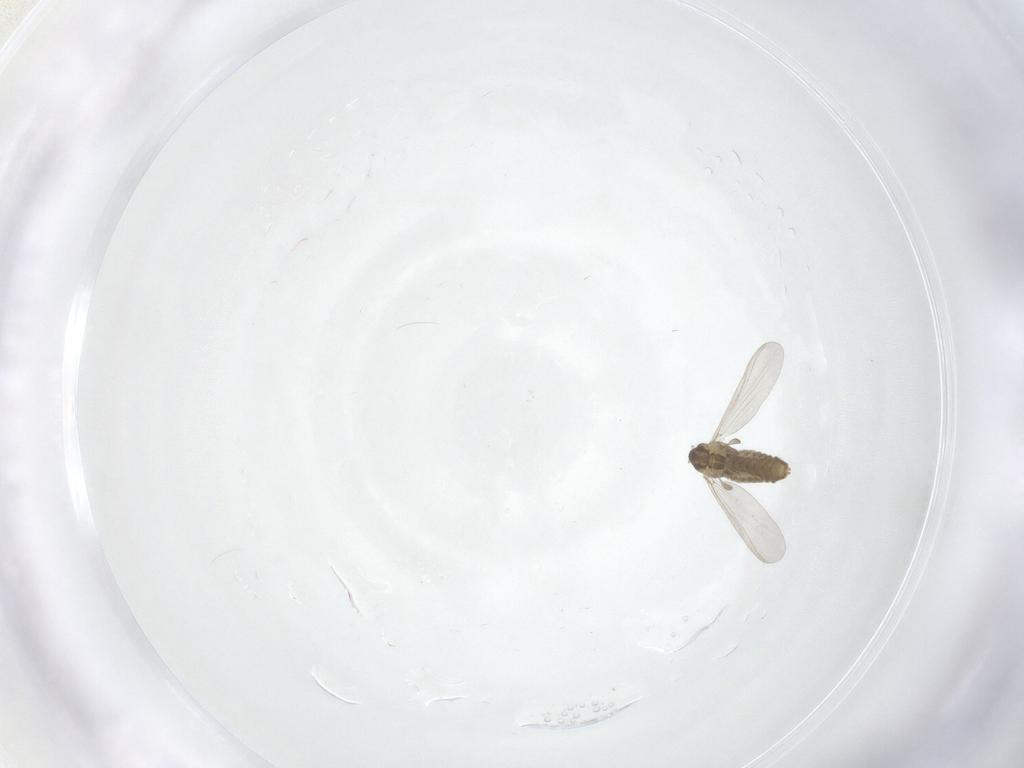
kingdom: Animalia
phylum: Arthropoda
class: Insecta
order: Diptera
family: Chironomidae
